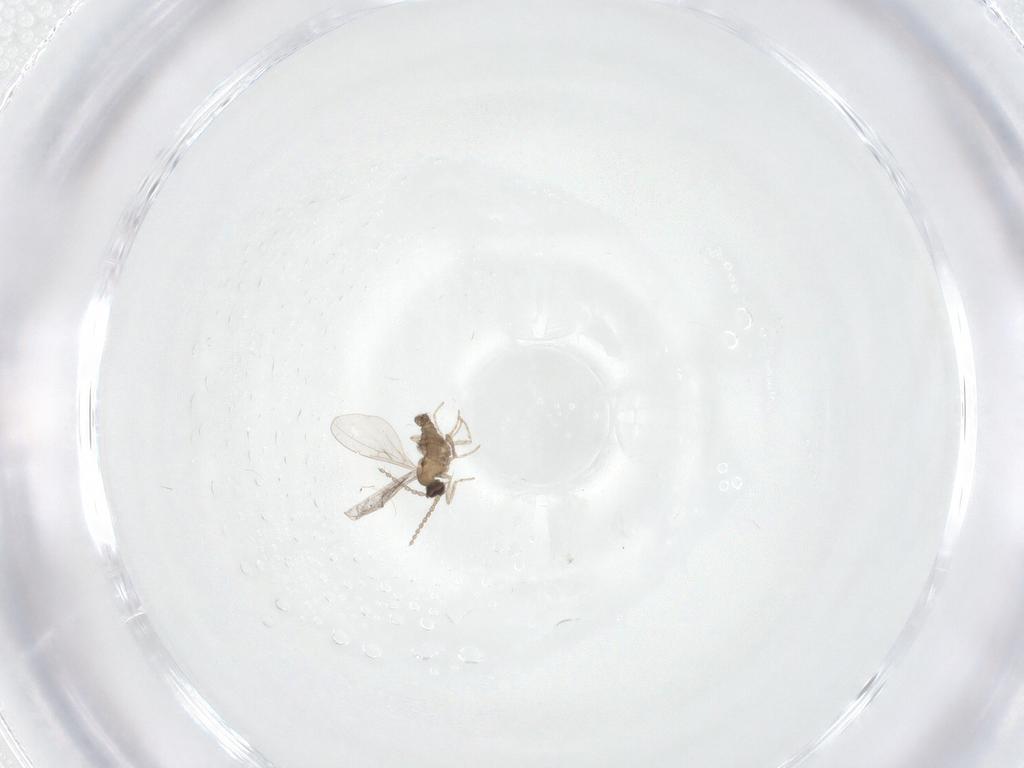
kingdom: Animalia
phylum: Arthropoda
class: Insecta
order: Diptera
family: Cecidomyiidae
